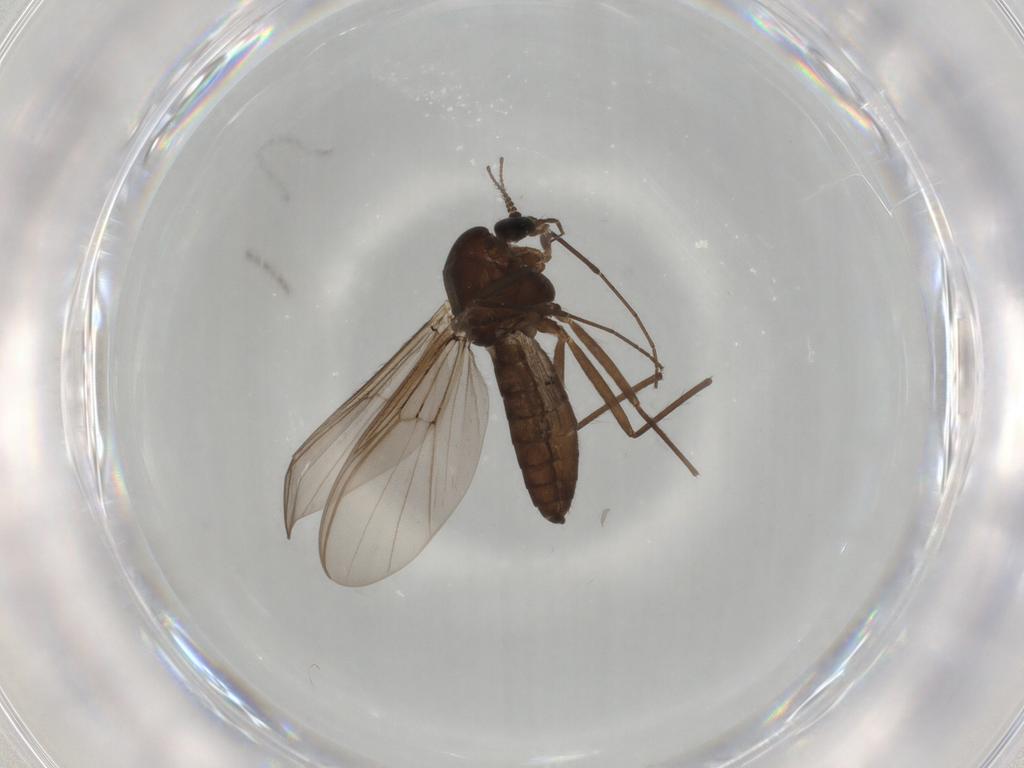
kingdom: Animalia
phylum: Arthropoda
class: Insecta
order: Diptera
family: Chironomidae
